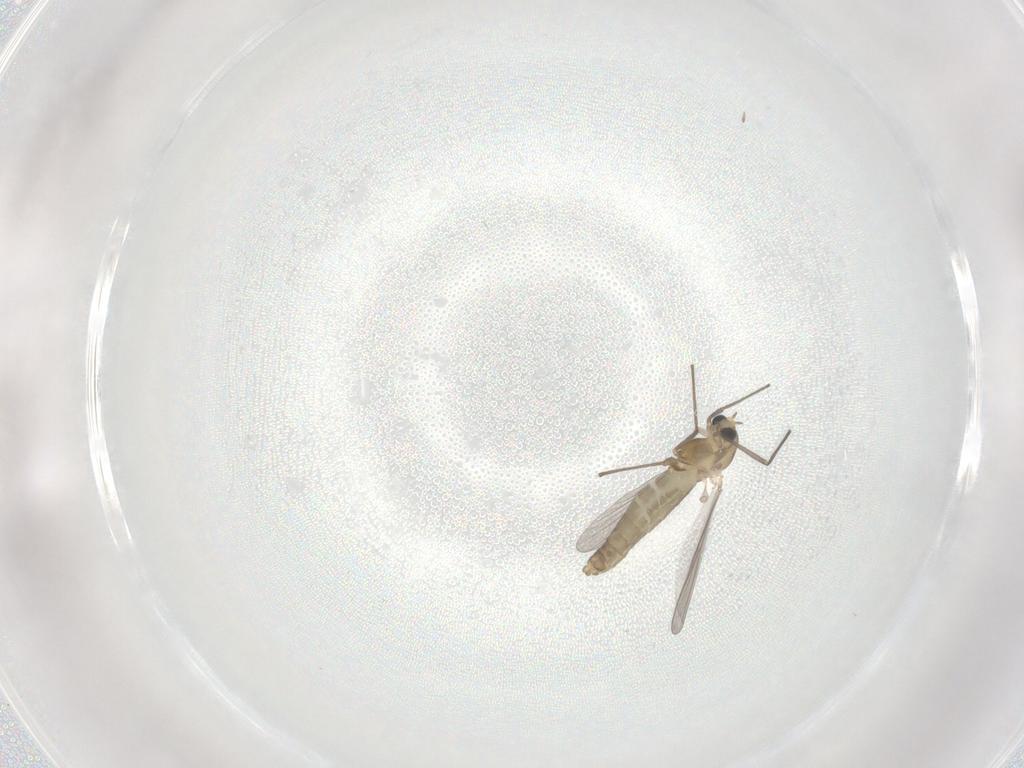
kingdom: Animalia
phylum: Arthropoda
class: Insecta
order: Diptera
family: Chironomidae
